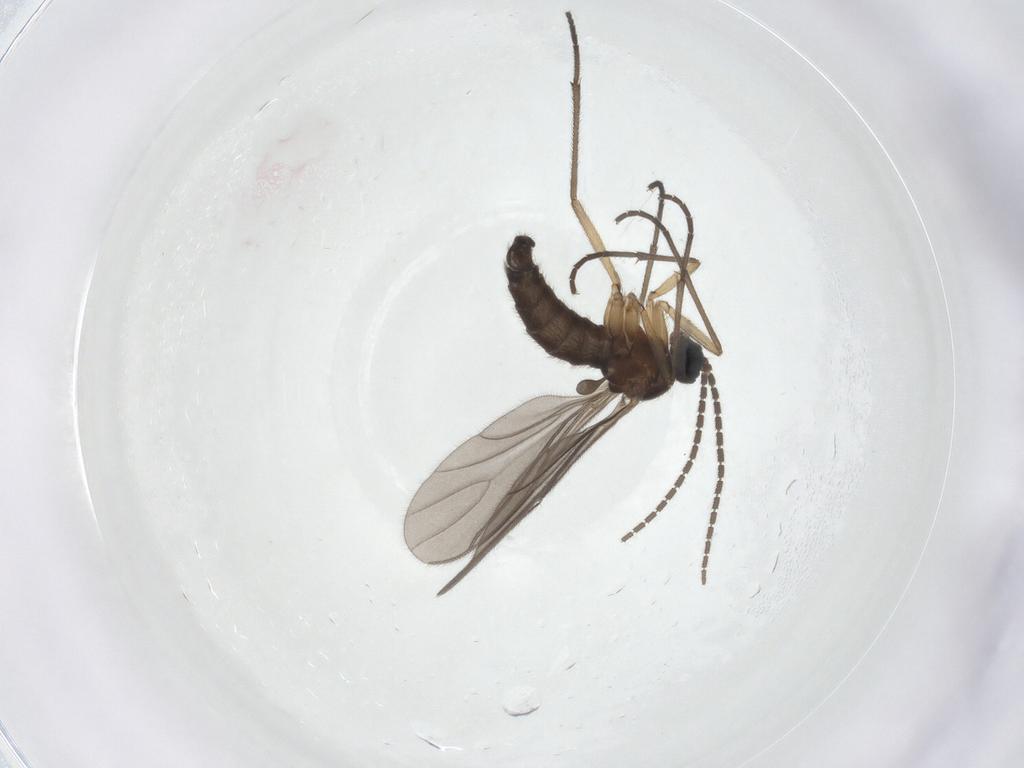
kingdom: Animalia
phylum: Arthropoda
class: Insecta
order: Diptera
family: Sciaridae
